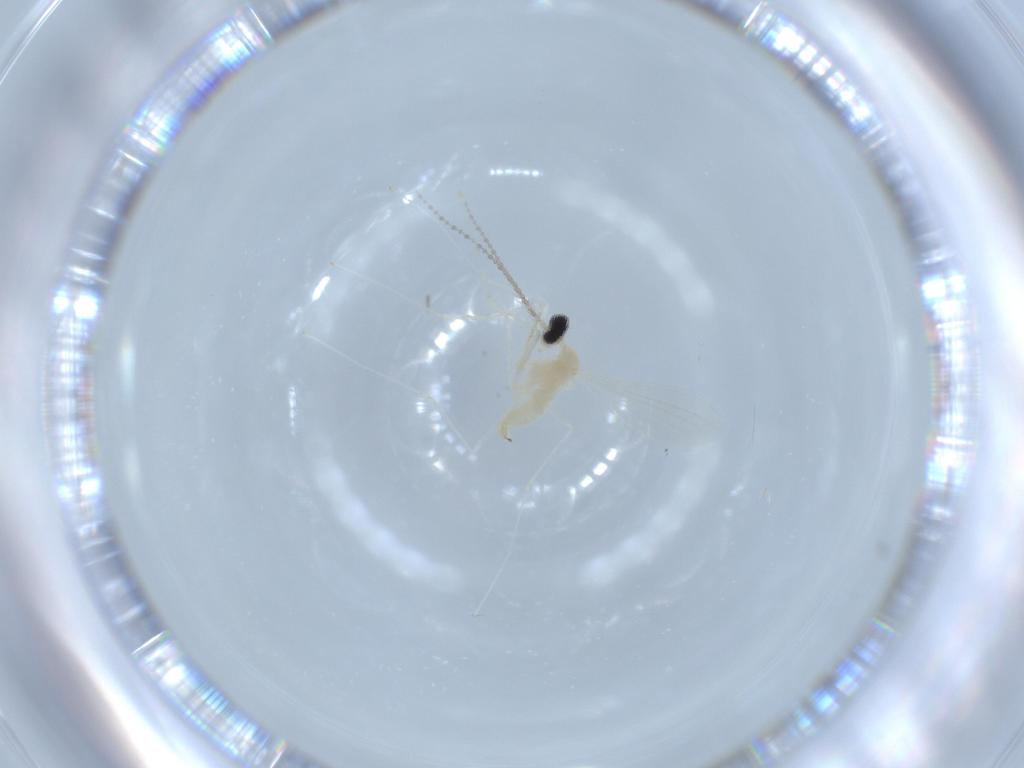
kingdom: Animalia
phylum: Arthropoda
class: Insecta
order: Diptera
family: Cecidomyiidae
